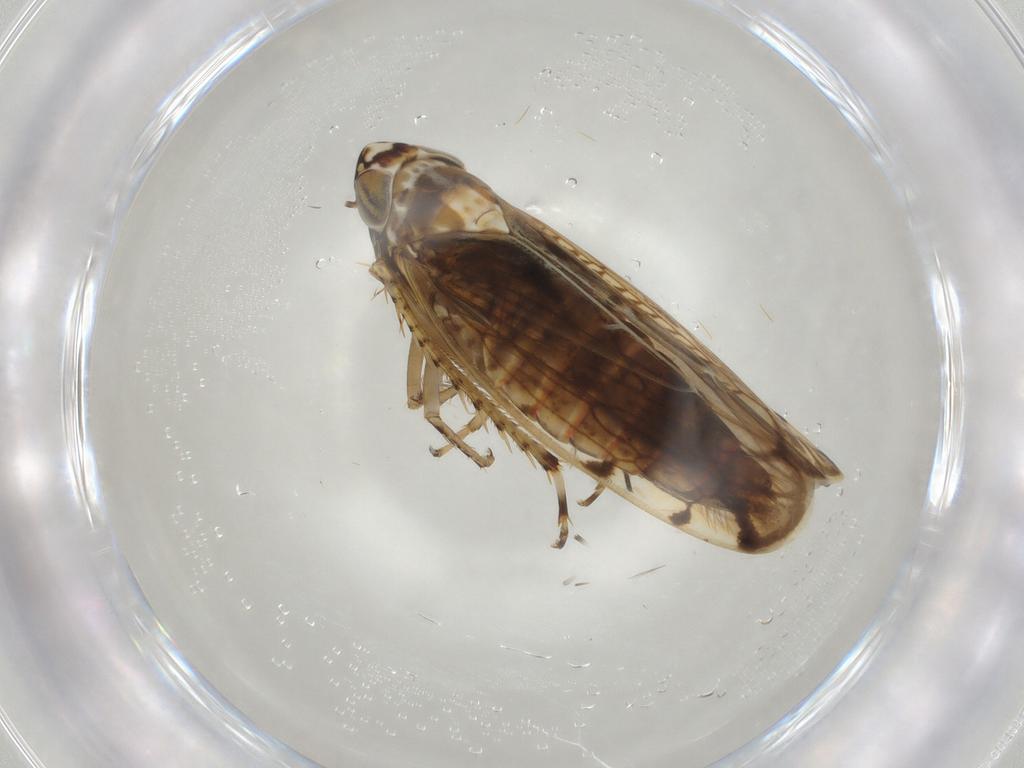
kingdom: Animalia
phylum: Arthropoda
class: Insecta
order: Hemiptera
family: Cicadellidae
